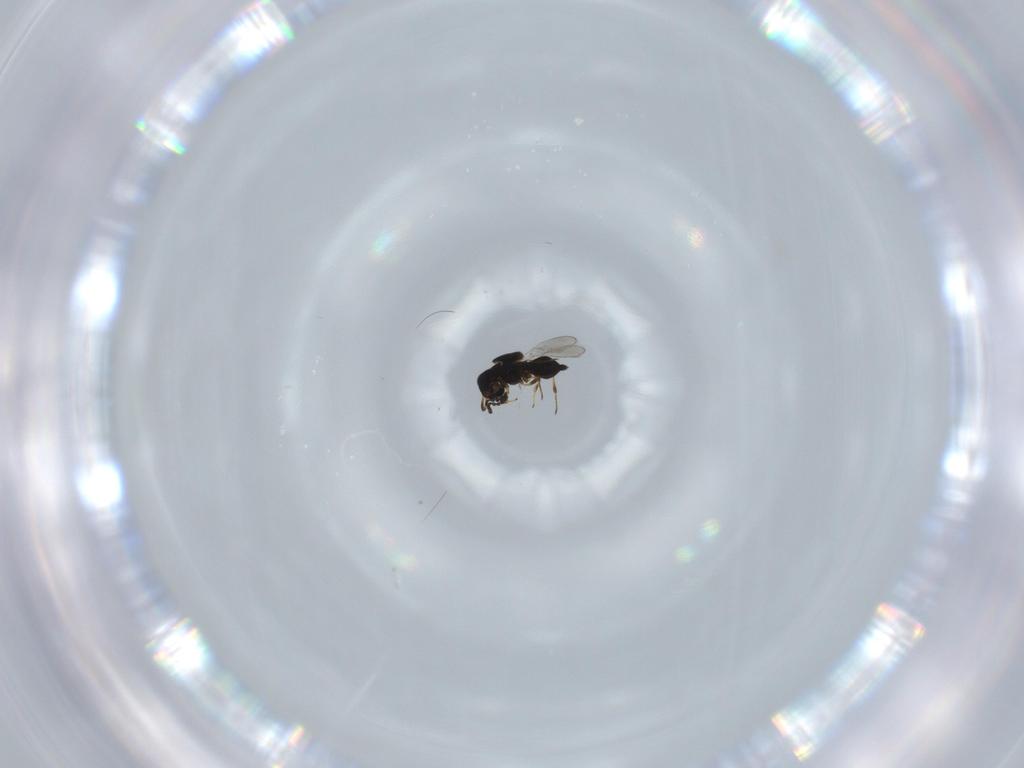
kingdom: Animalia
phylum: Arthropoda
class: Insecta
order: Hymenoptera
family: Platygastridae
